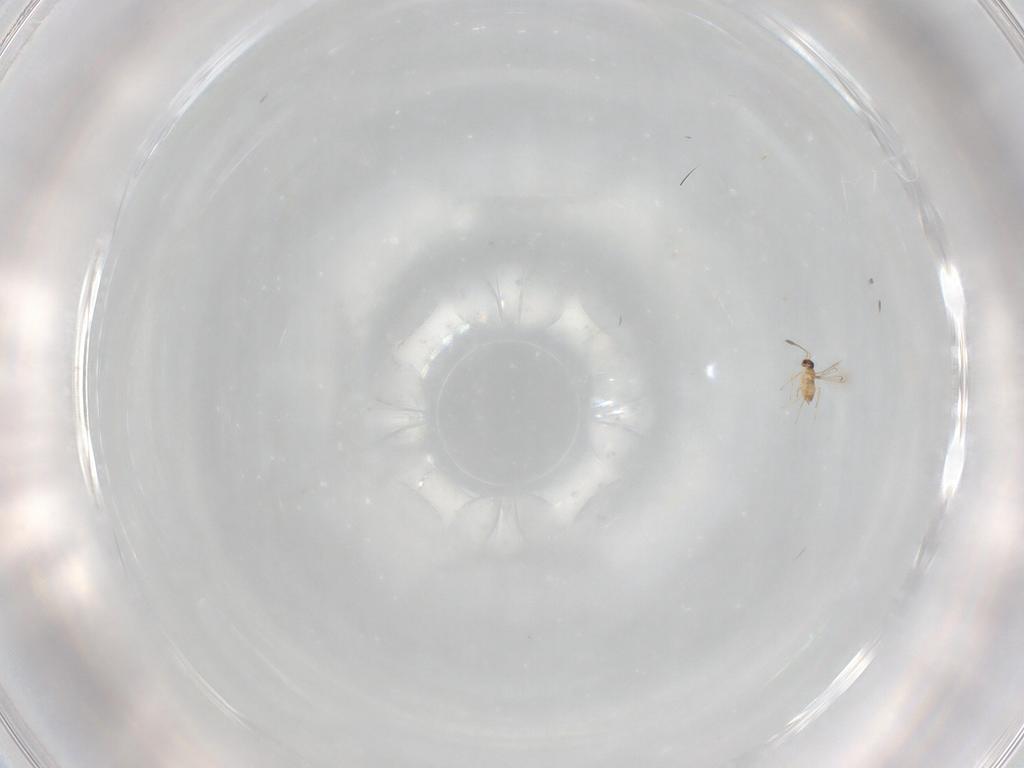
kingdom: Animalia
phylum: Arthropoda
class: Insecta
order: Hymenoptera
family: Mymaridae
